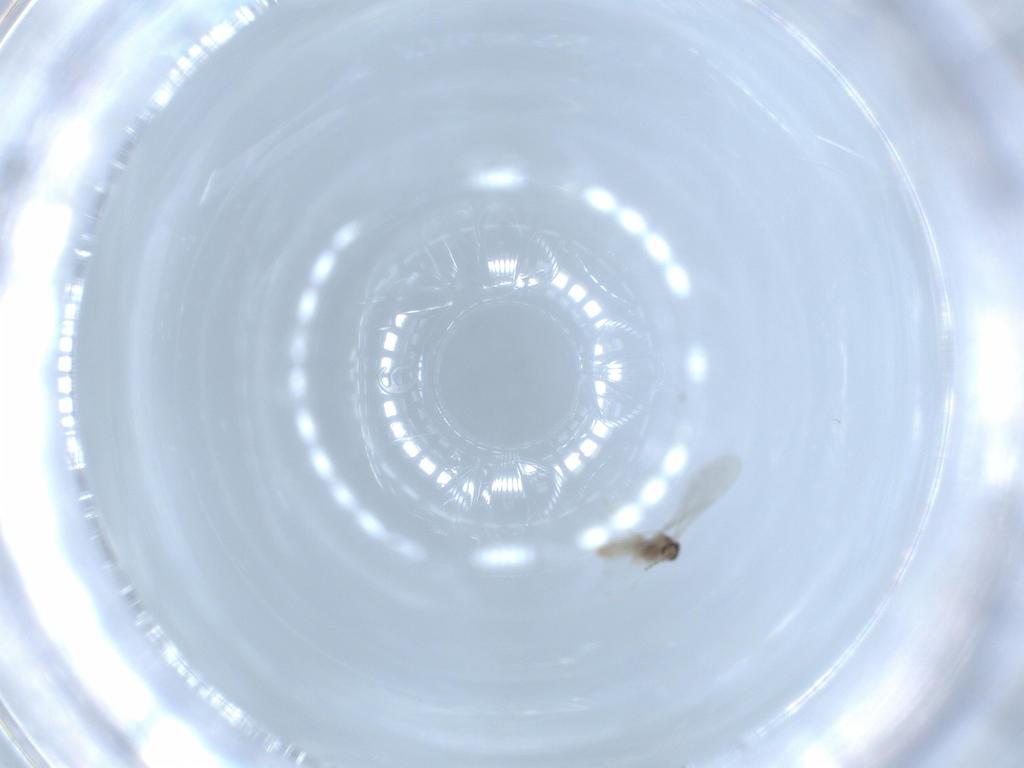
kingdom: Animalia
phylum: Arthropoda
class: Insecta
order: Diptera
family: Cecidomyiidae
